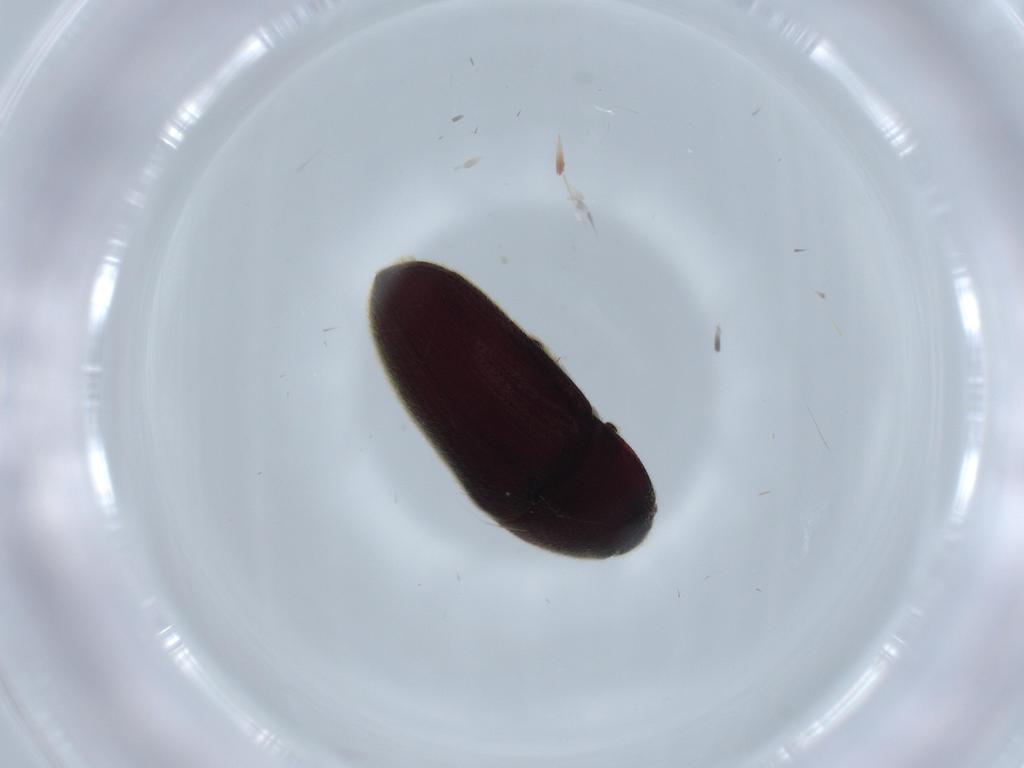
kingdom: Animalia
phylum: Arthropoda
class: Insecta
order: Coleoptera
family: Throscidae
